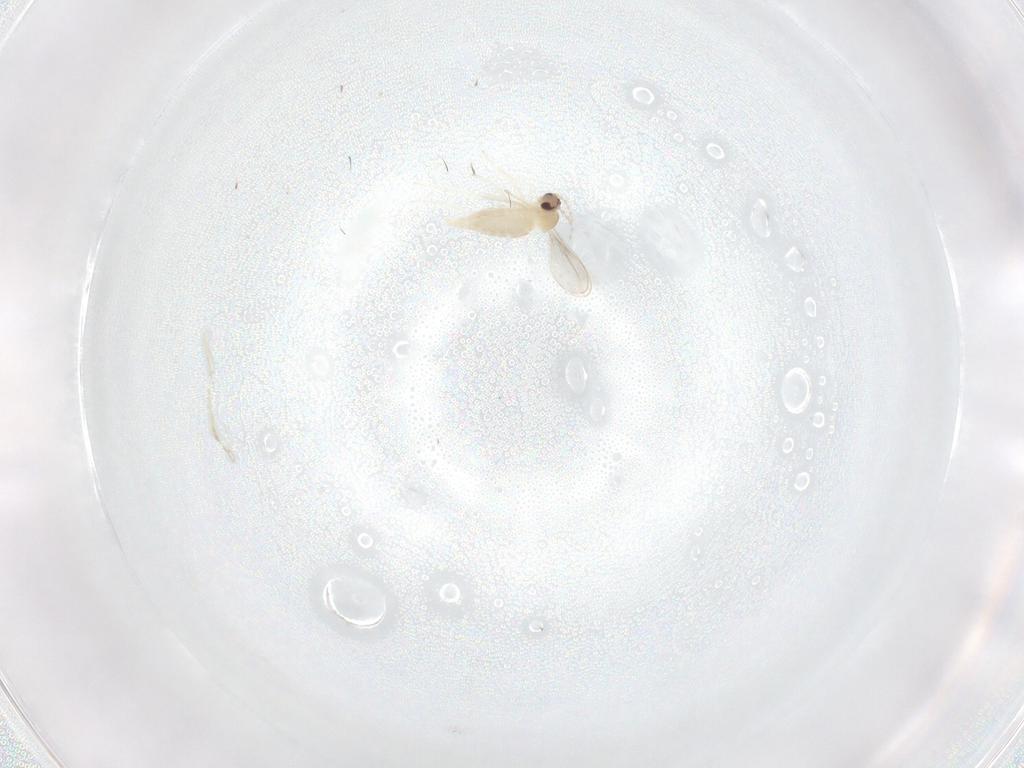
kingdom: Animalia
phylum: Arthropoda
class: Insecta
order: Diptera
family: Cecidomyiidae
